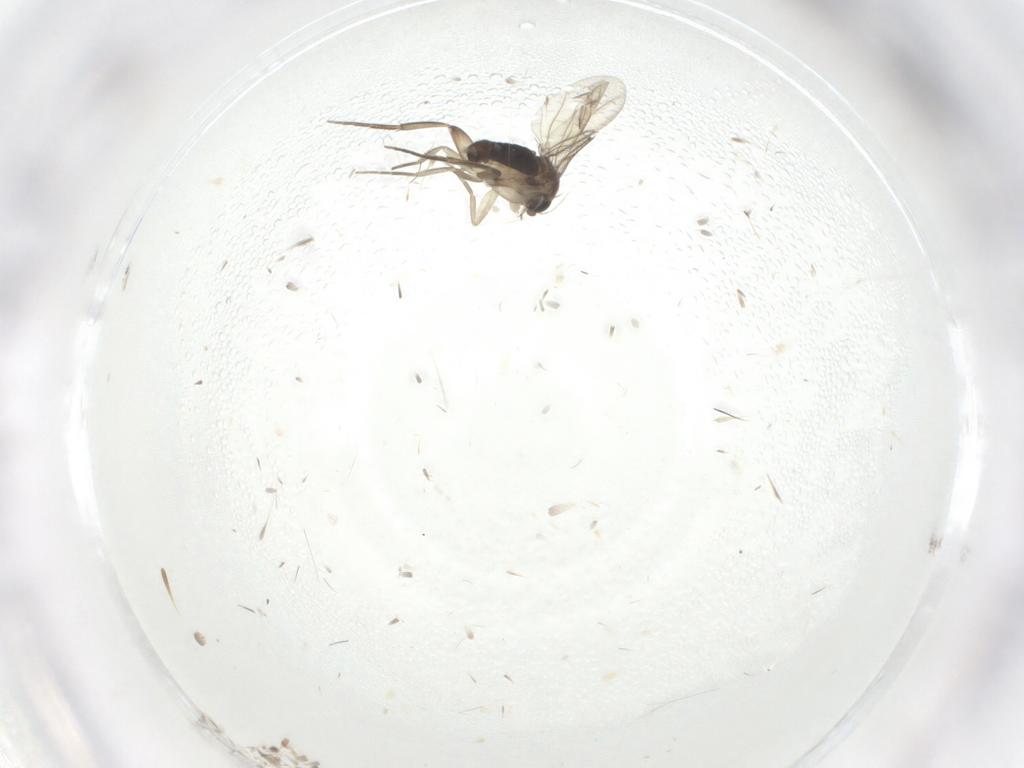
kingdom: Animalia
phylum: Arthropoda
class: Insecta
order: Diptera
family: Phoridae
